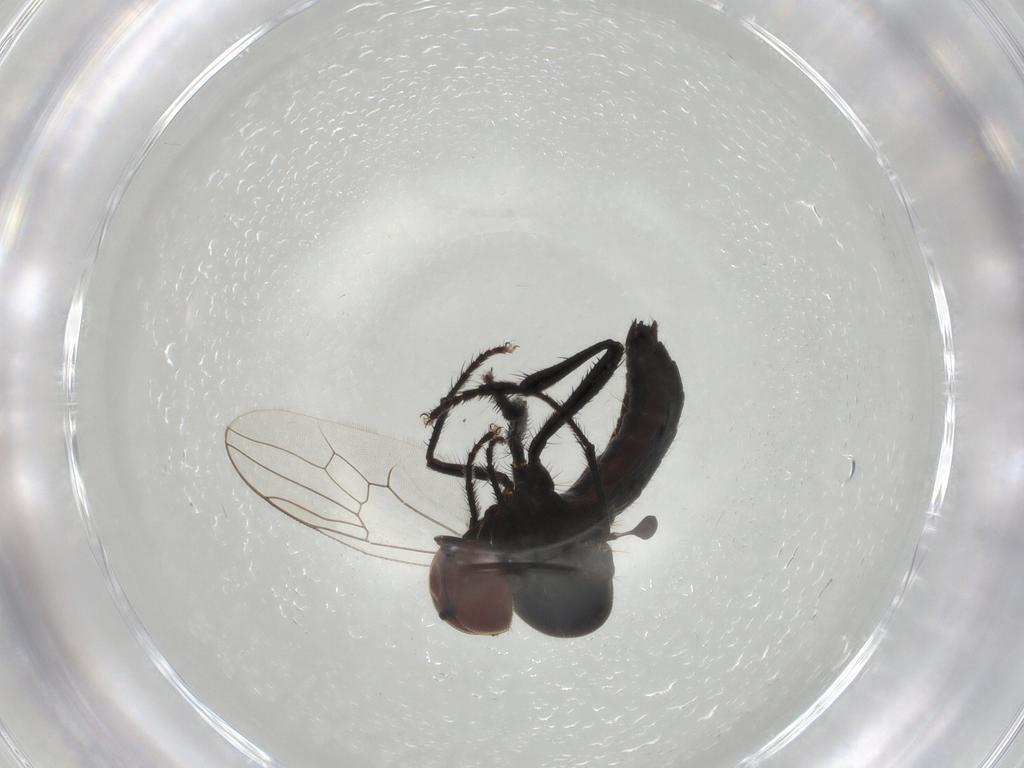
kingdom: Animalia
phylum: Arthropoda
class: Insecta
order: Diptera
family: Hybotidae
